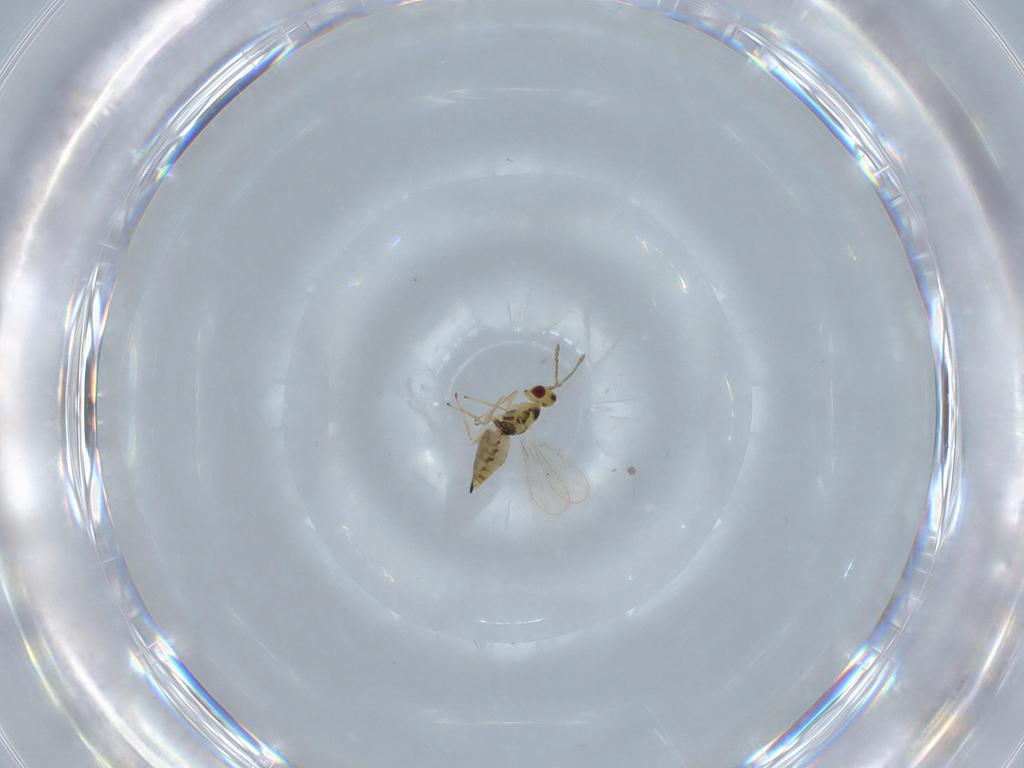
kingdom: Animalia
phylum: Arthropoda
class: Insecta
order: Hymenoptera
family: Eulophidae
